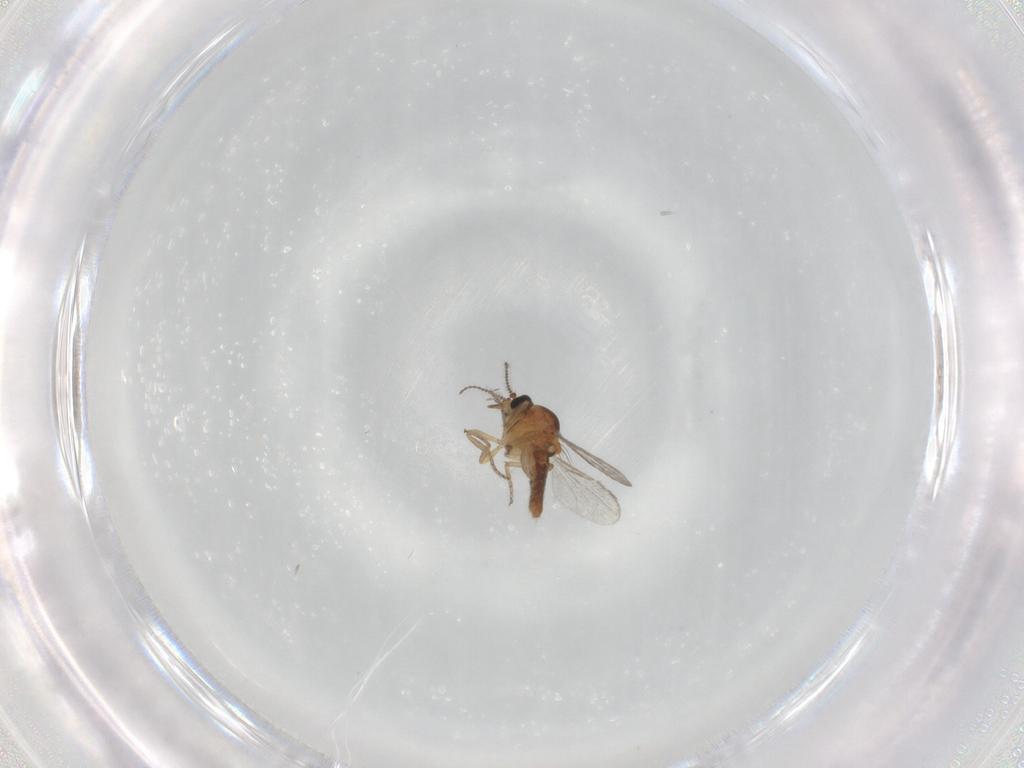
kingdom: Animalia
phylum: Arthropoda
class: Insecta
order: Diptera
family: Ceratopogonidae
